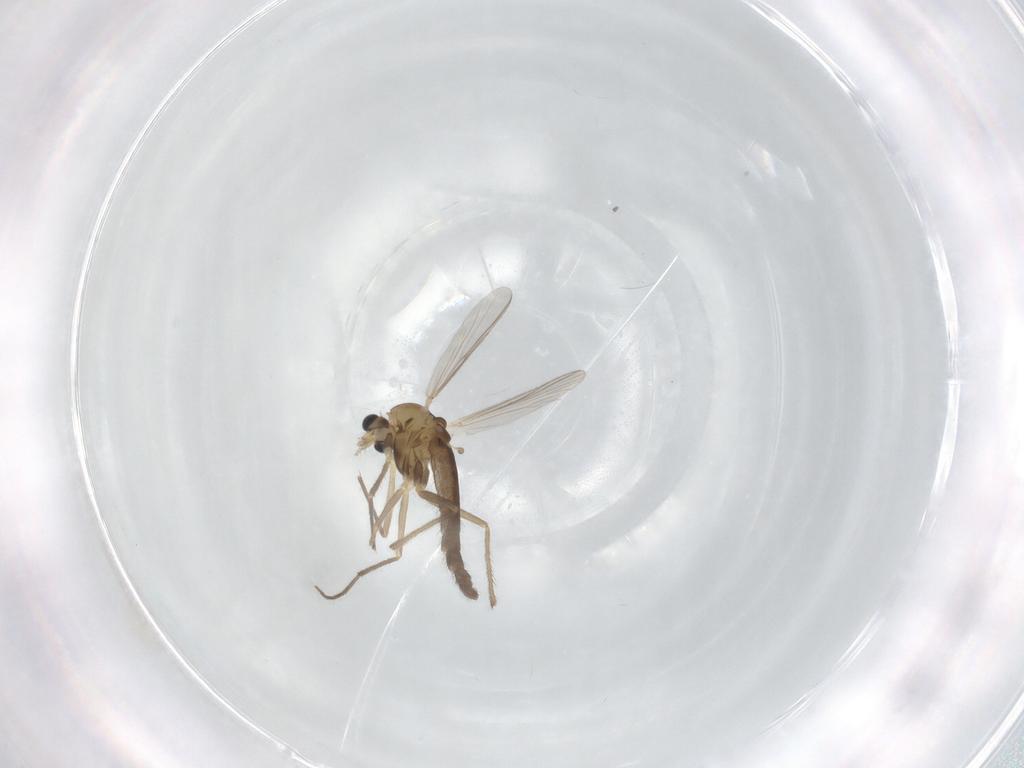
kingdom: Animalia
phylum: Arthropoda
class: Insecta
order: Diptera
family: Chironomidae
